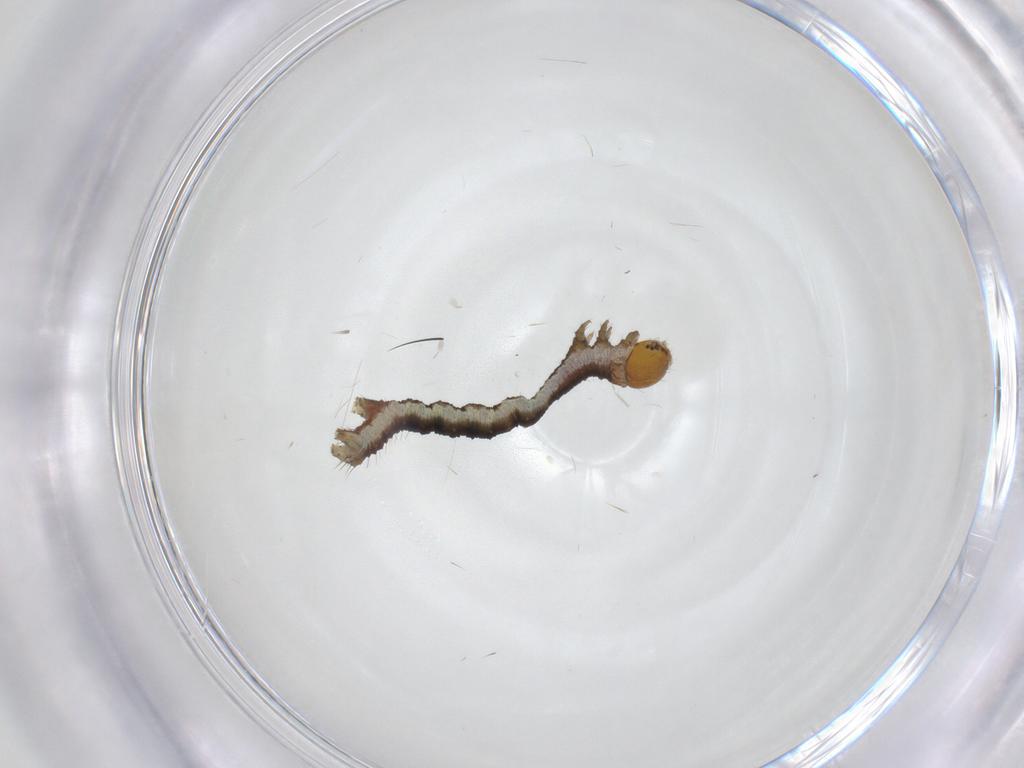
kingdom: Animalia
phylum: Arthropoda
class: Insecta
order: Lepidoptera
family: Geometridae
